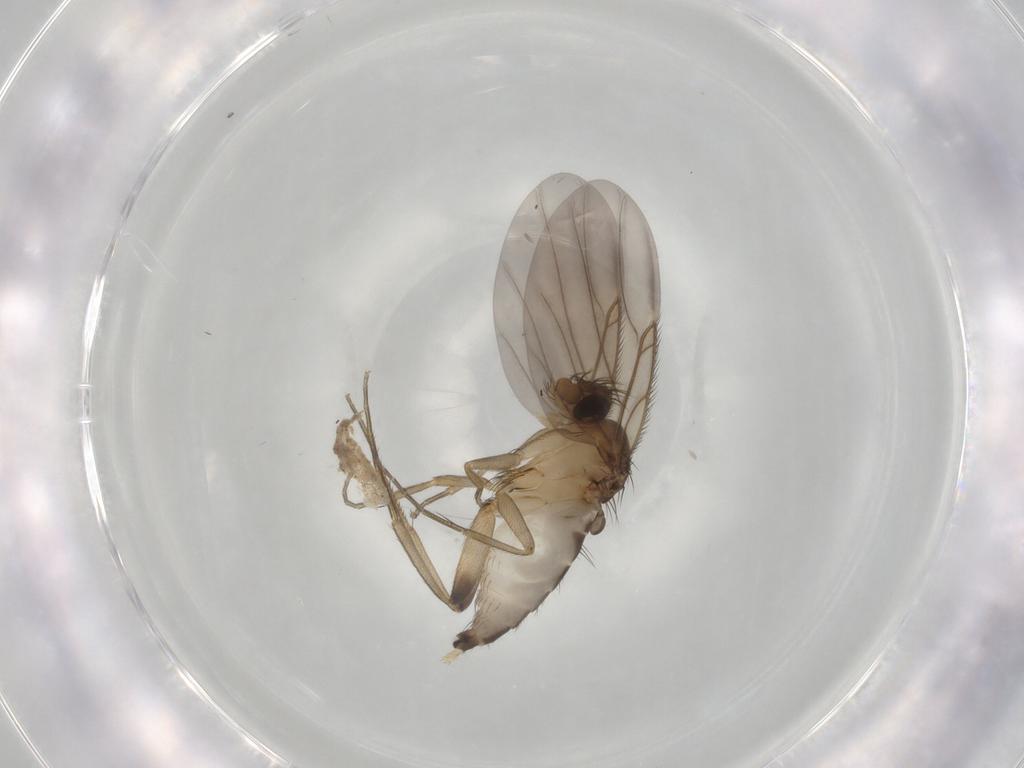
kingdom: Animalia
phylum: Arthropoda
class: Insecta
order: Diptera
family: Phoridae
